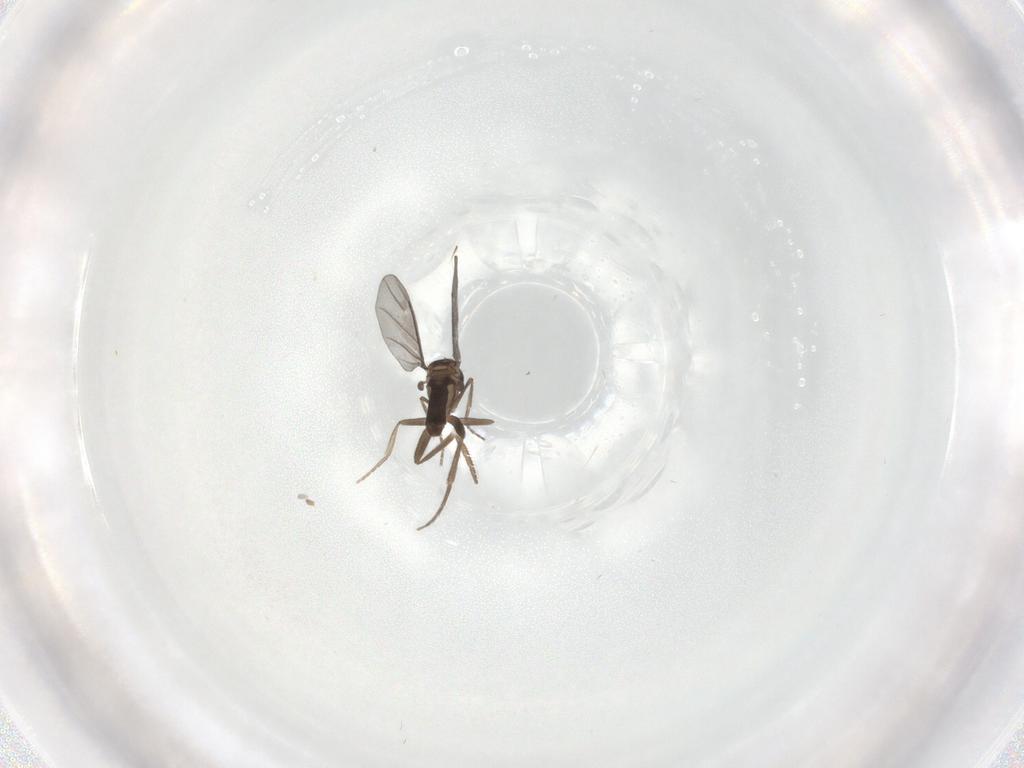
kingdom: Animalia
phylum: Arthropoda
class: Insecta
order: Diptera
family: Phoridae
